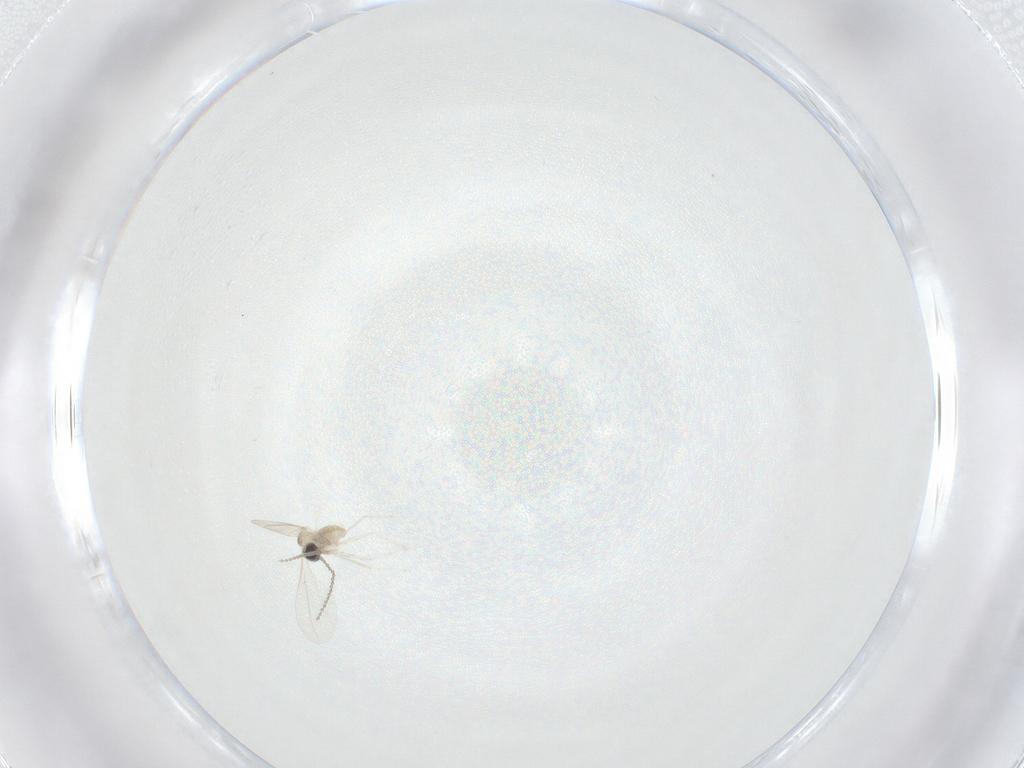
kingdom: Animalia
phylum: Arthropoda
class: Insecta
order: Diptera
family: Cecidomyiidae
